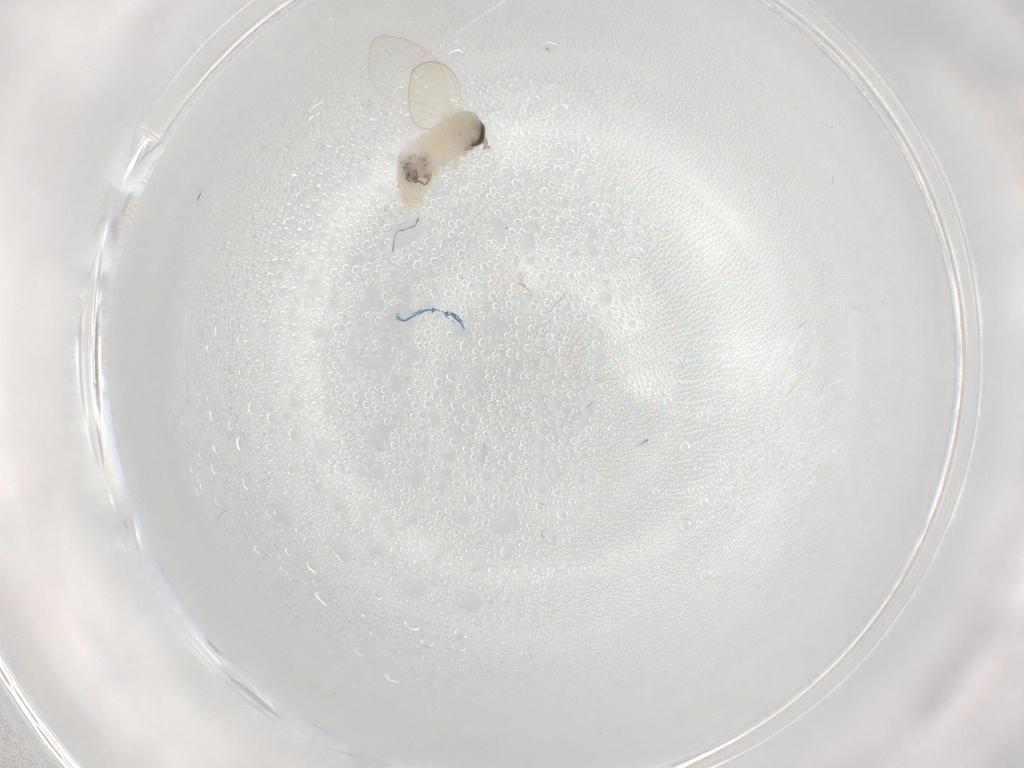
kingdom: Animalia
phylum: Arthropoda
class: Insecta
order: Diptera
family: Psychodidae
